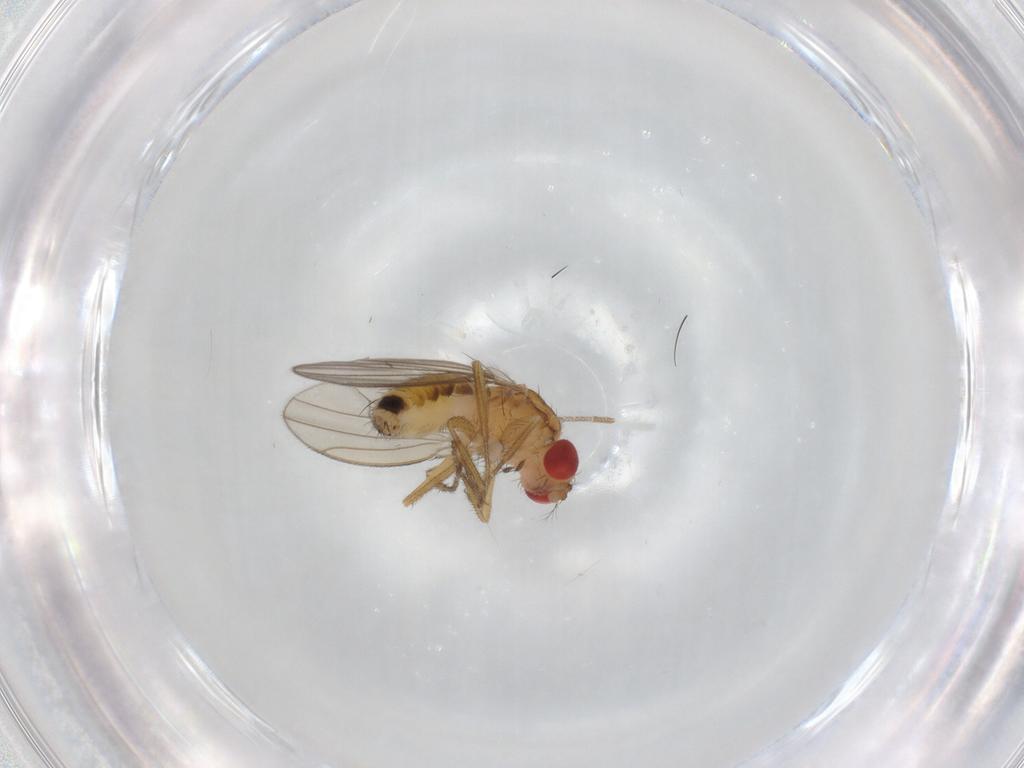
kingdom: Animalia
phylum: Arthropoda
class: Insecta
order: Diptera
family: Drosophilidae
